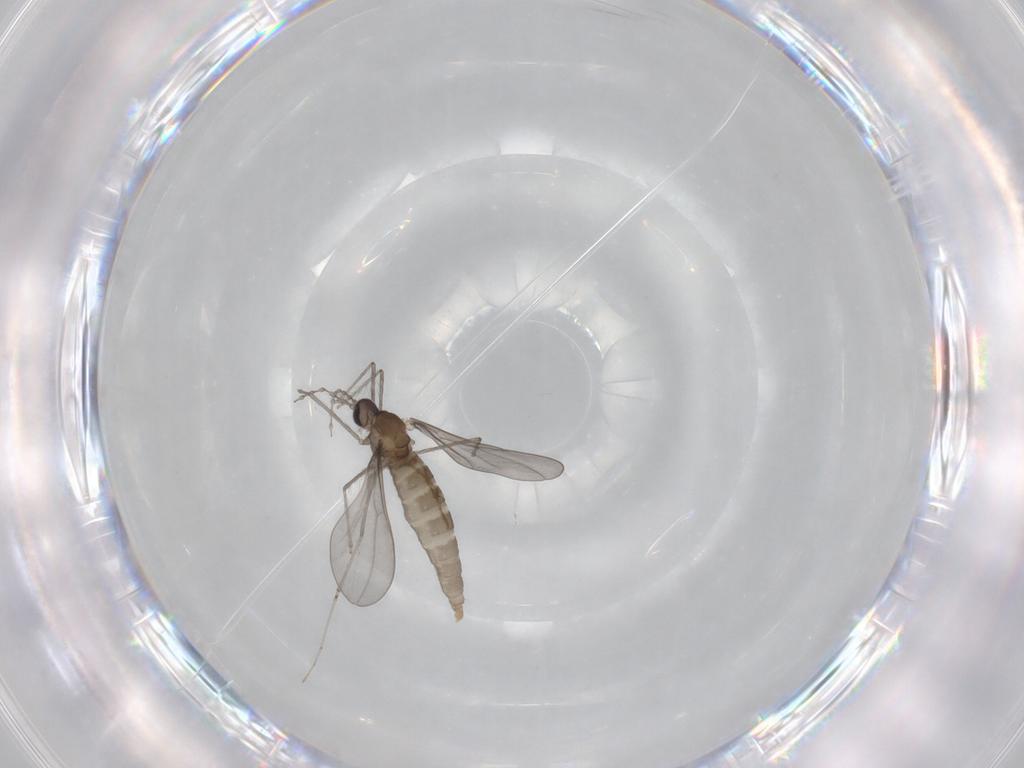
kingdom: Animalia
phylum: Arthropoda
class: Insecta
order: Diptera
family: Cecidomyiidae
